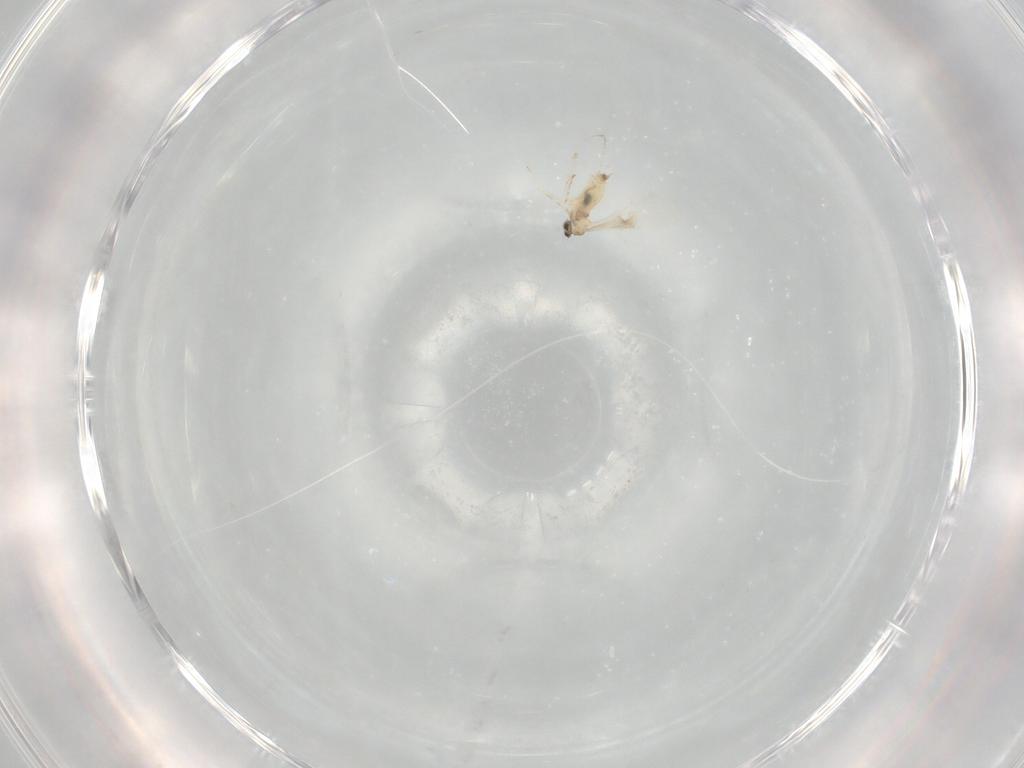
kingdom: Animalia
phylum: Arthropoda
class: Insecta
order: Diptera
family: Cecidomyiidae
